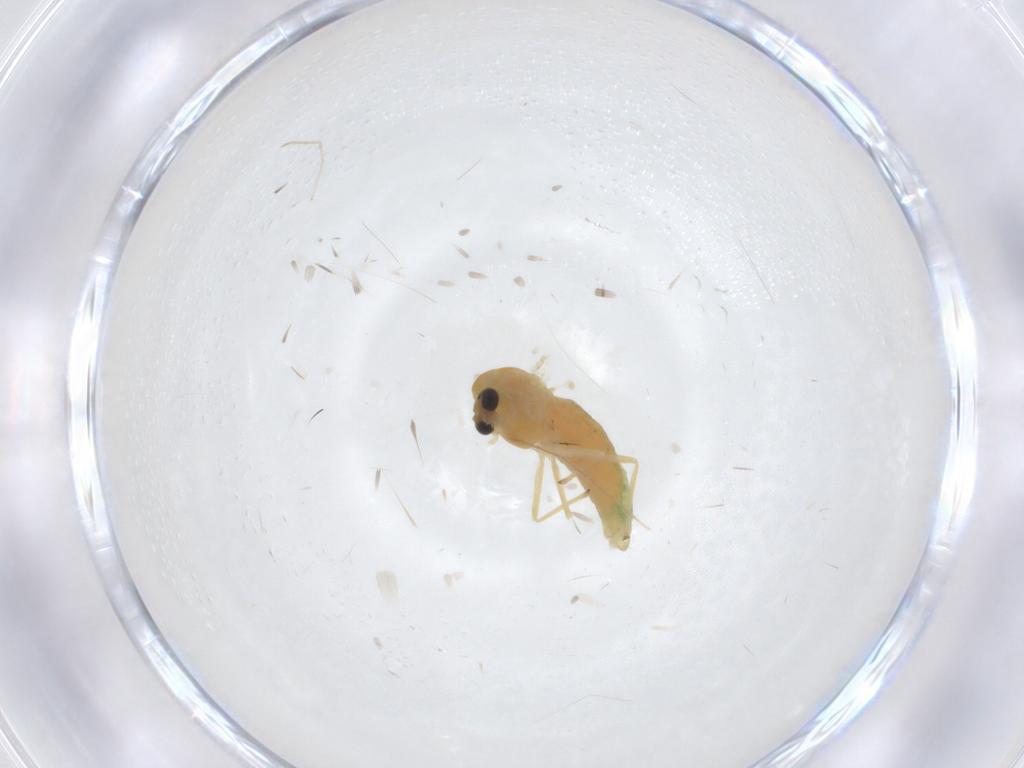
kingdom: Animalia
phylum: Arthropoda
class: Insecta
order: Diptera
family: Chironomidae
